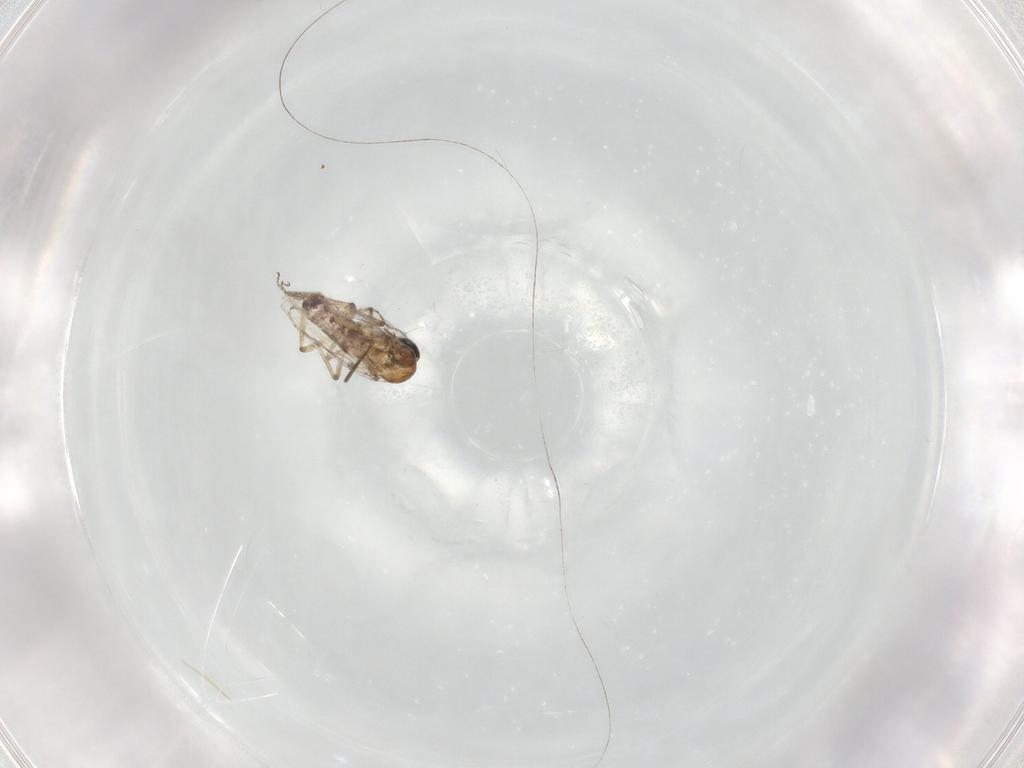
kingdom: Animalia
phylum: Arthropoda
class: Insecta
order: Diptera
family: Ceratopogonidae
